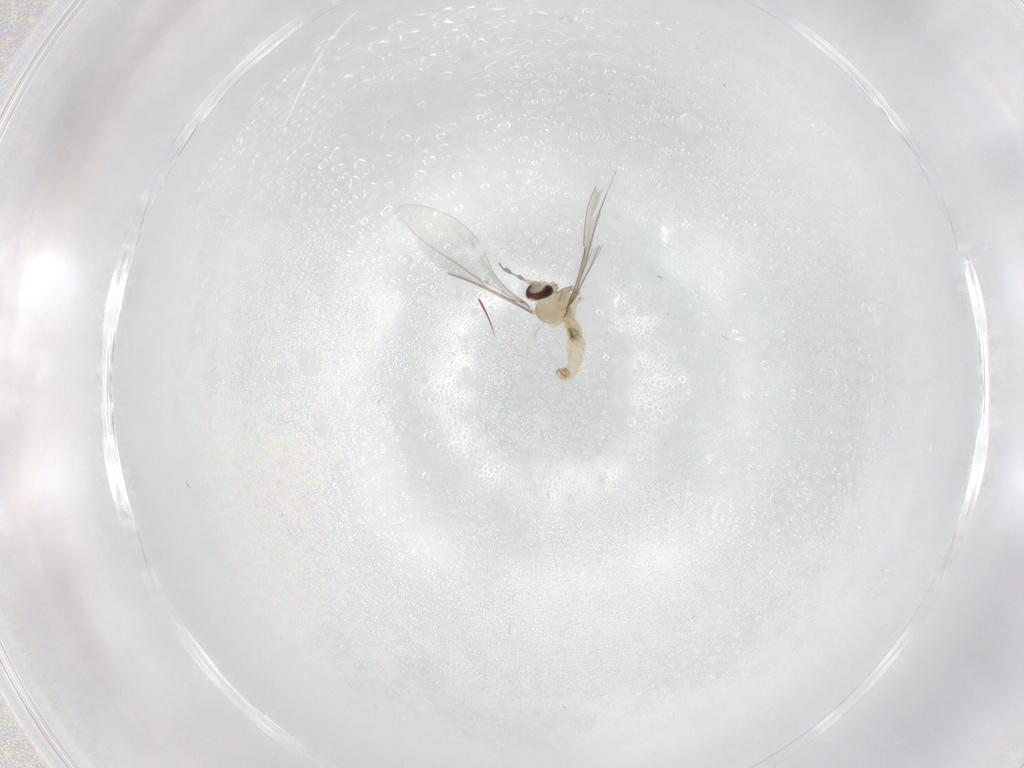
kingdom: Animalia
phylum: Arthropoda
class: Insecta
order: Diptera
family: Cecidomyiidae
